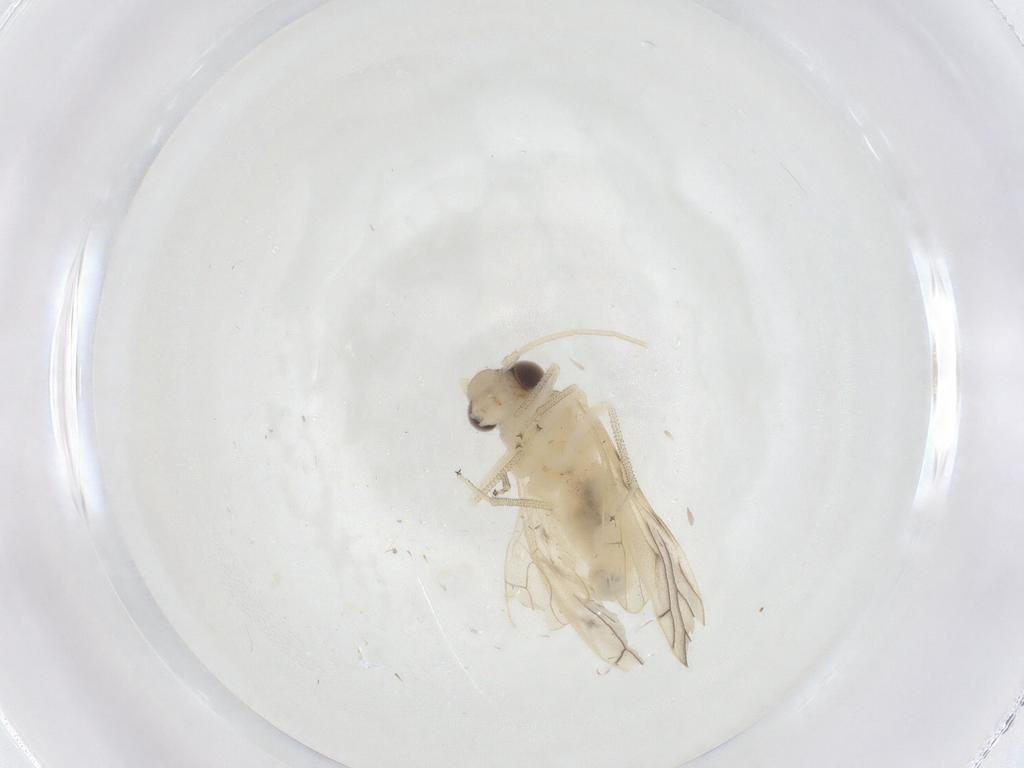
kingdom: Animalia
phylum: Arthropoda
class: Insecta
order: Psocodea
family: Caeciliusidae
